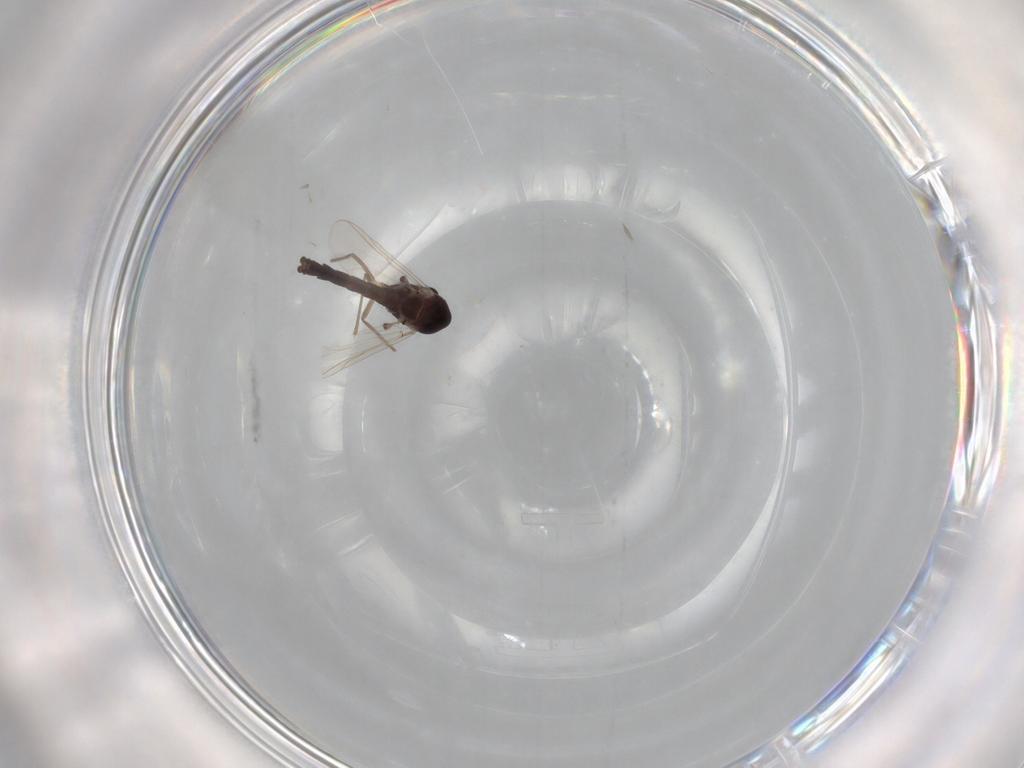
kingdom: Animalia
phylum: Arthropoda
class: Insecta
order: Diptera
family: Chironomidae
